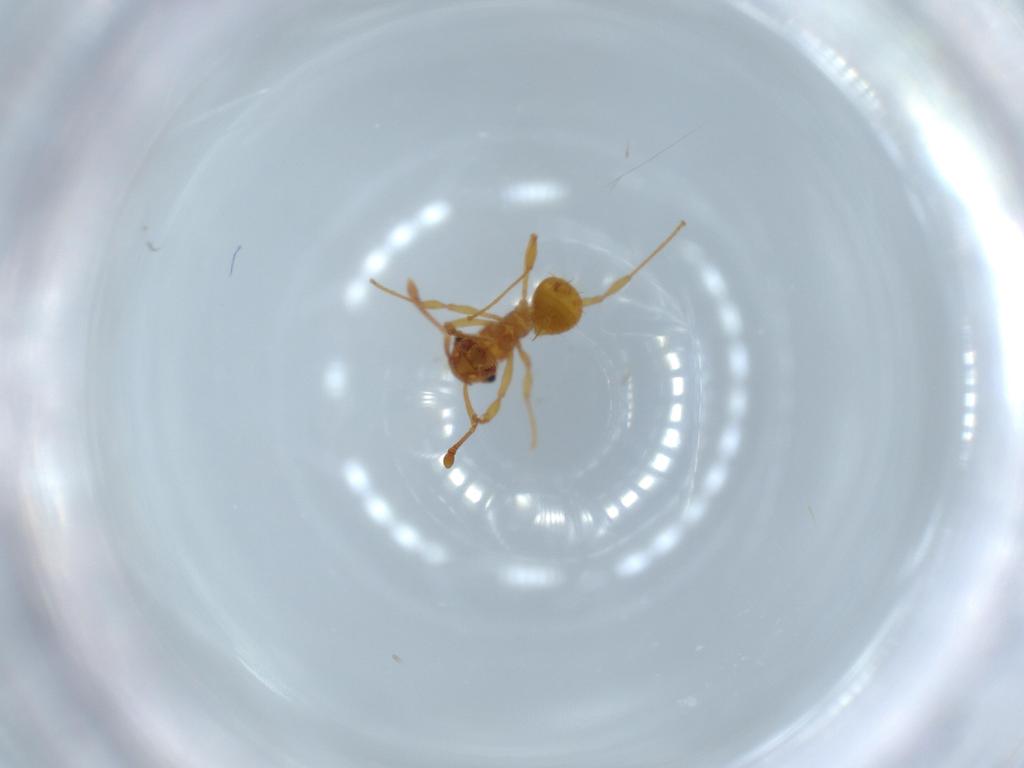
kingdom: Animalia
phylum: Arthropoda
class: Insecta
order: Hymenoptera
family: Formicidae
